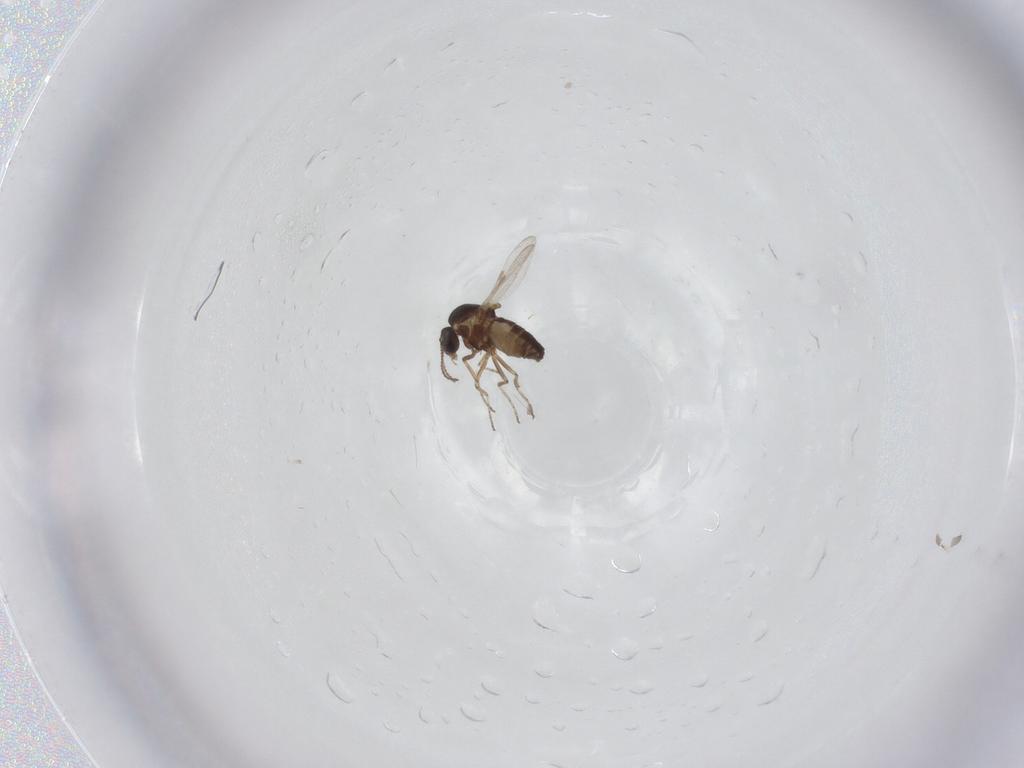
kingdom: Animalia
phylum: Arthropoda
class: Insecta
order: Diptera
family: Ceratopogonidae
